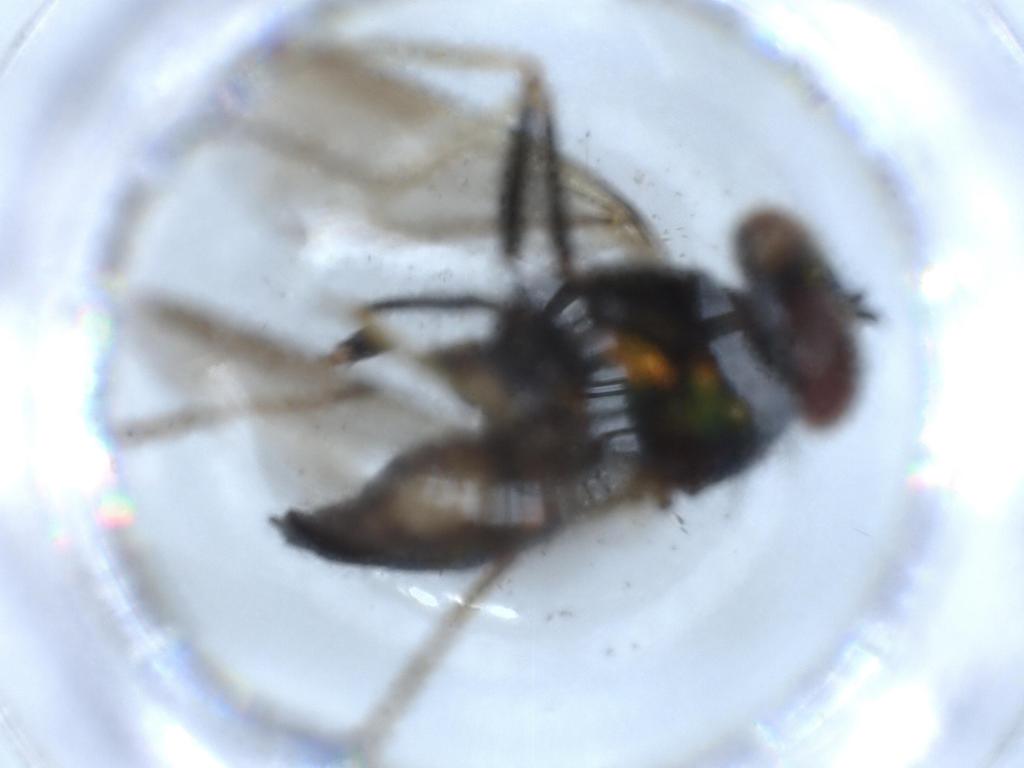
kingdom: Animalia
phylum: Arthropoda
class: Insecta
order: Diptera
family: Dolichopodidae
